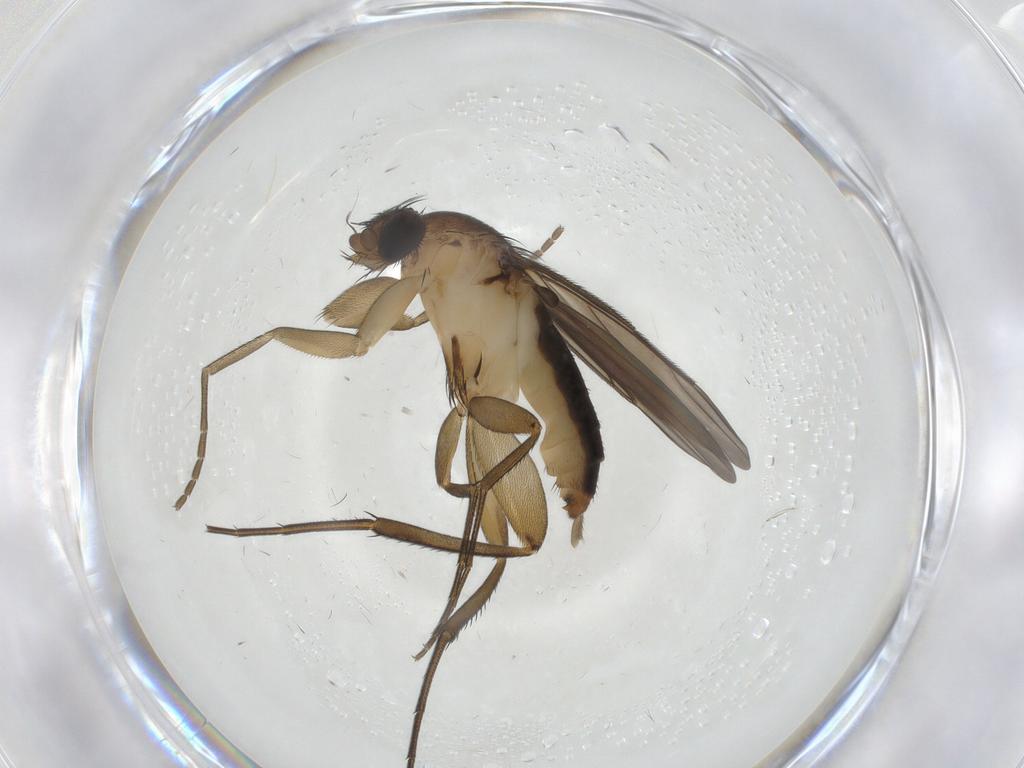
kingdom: Animalia
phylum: Arthropoda
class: Insecta
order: Diptera
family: Phoridae
